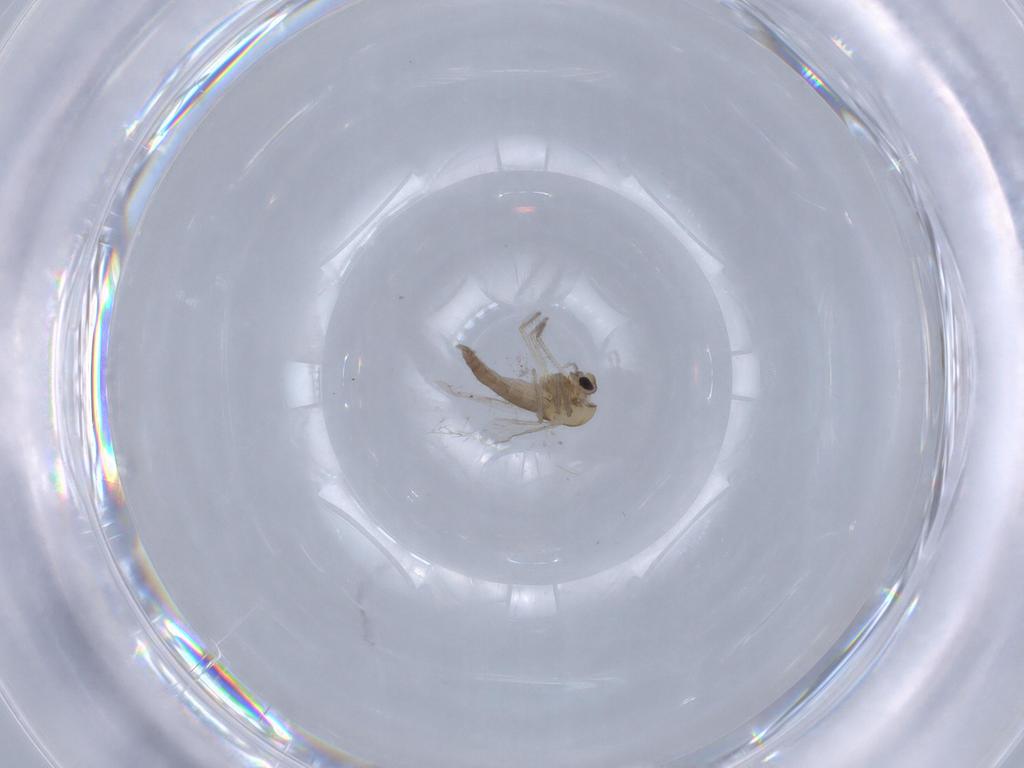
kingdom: Animalia
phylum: Arthropoda
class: Insecta
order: Diptera
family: Chironomidae
